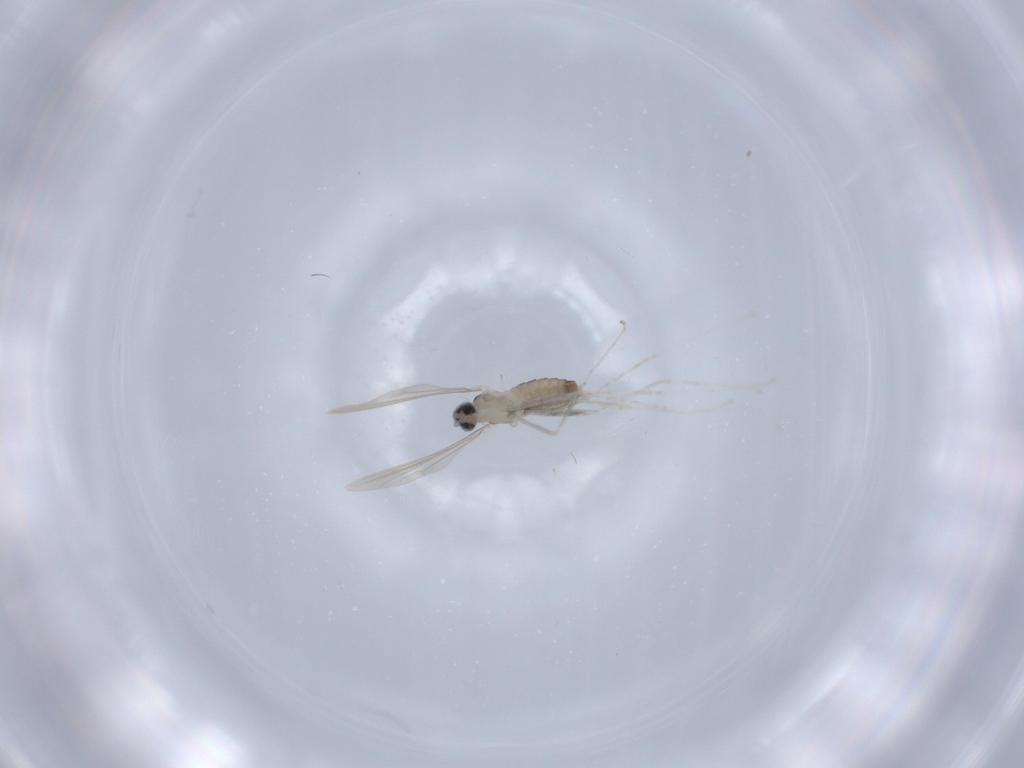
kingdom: Animalia
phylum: Arthropoda
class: Insecta
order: Diptera
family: Cecidomyiidae
